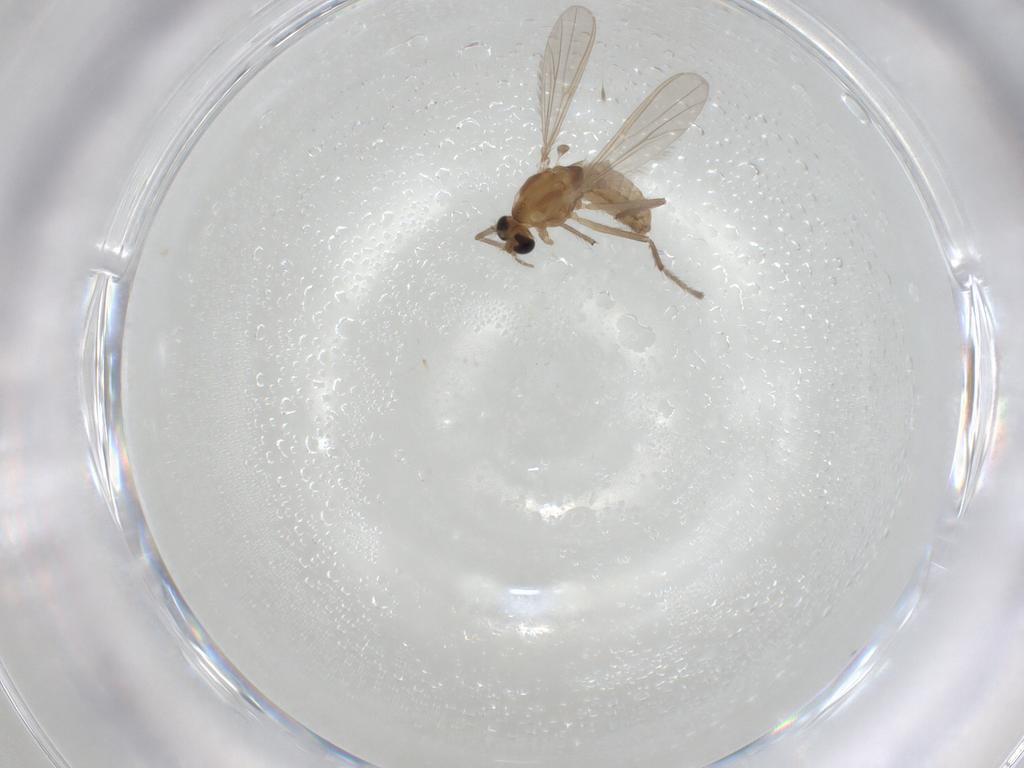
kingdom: Animalia
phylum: Arthropoda
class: Insecta
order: Diptera
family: Chironomidae
